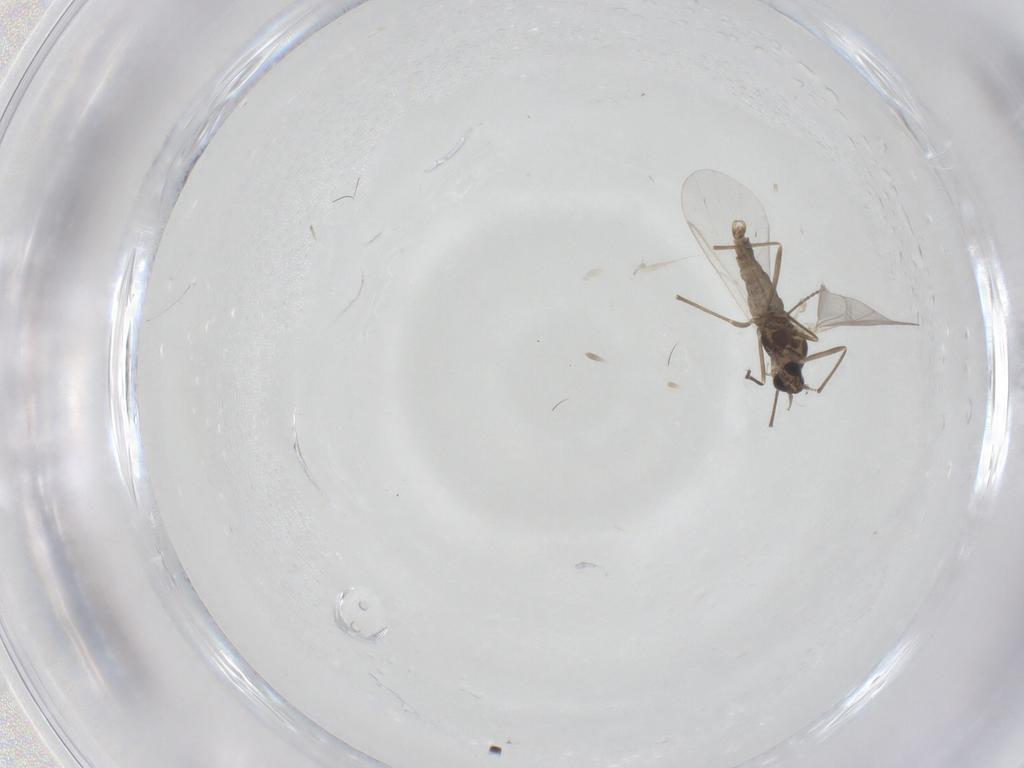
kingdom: Animalia
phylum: Arthropoda
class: Insecta
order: Diptera
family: Cecidomyiidae
